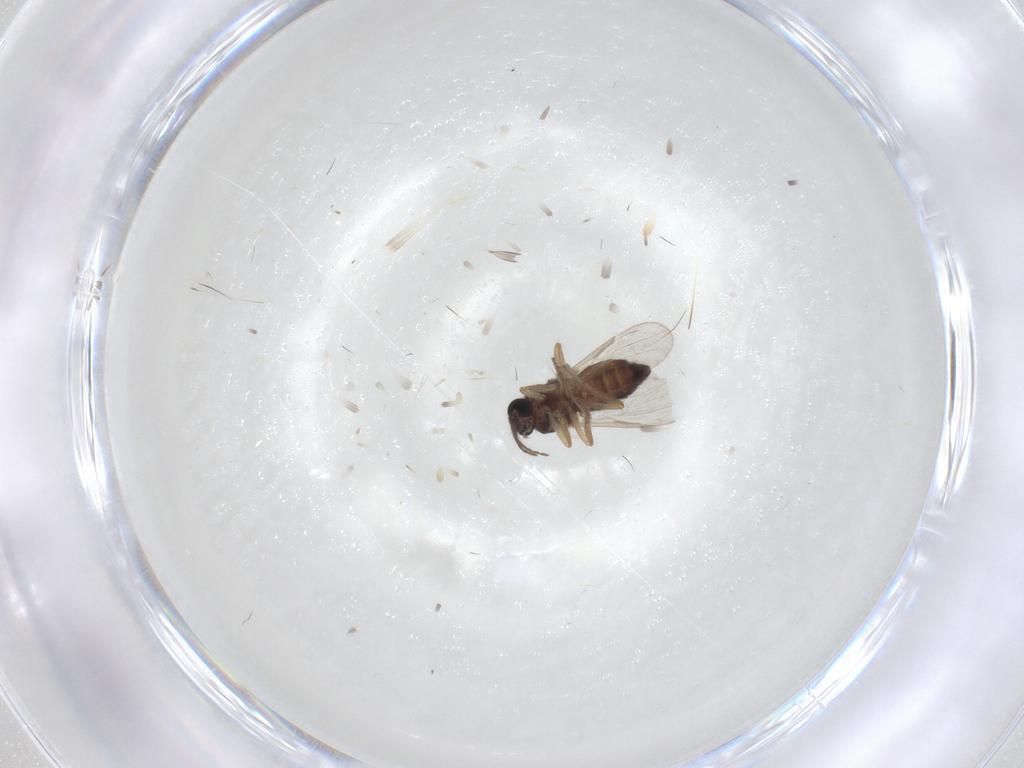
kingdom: Animalia
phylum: Arthropoda
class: Insecta
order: Diptera
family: Ceratopogonidae
